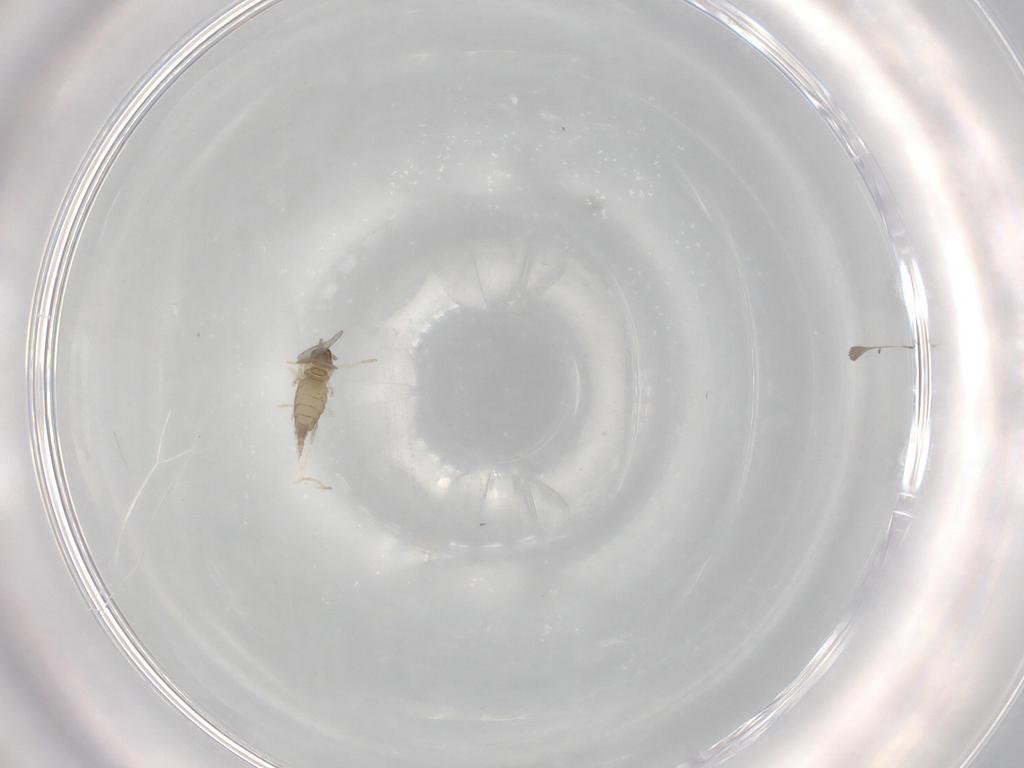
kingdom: Animalia
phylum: Arthropoda
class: Insecta
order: Diptera
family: Cecidomyiidae
